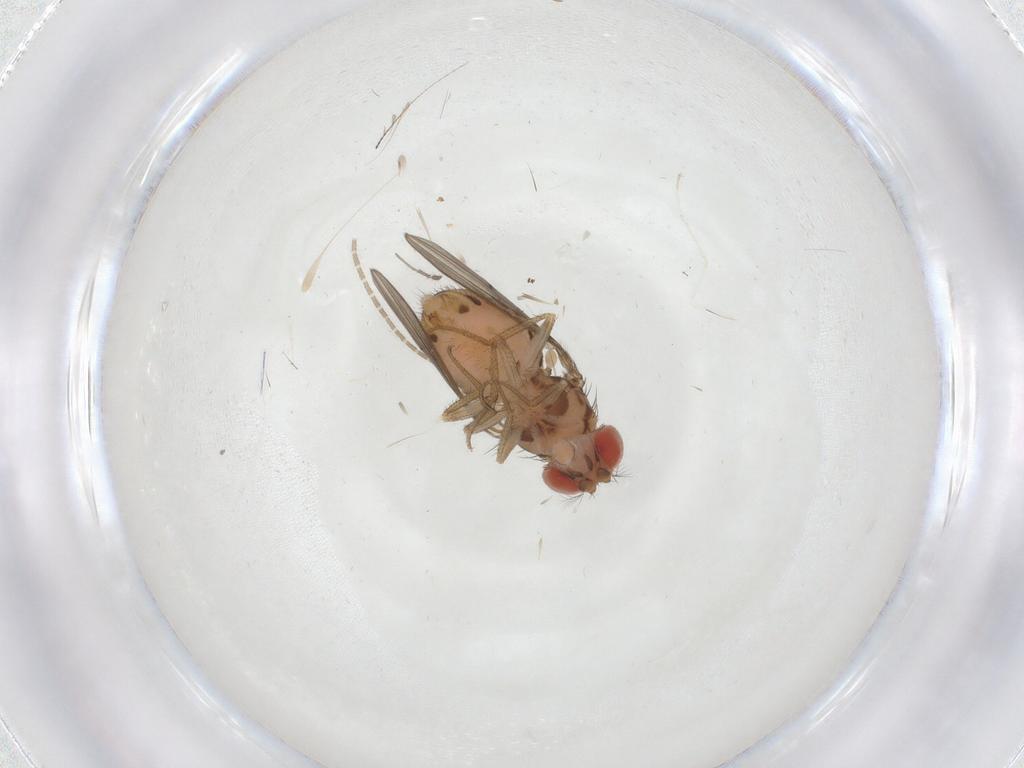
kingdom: Animalia
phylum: Arthropoda
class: Insecta
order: Diptera
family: Drosophilidae
